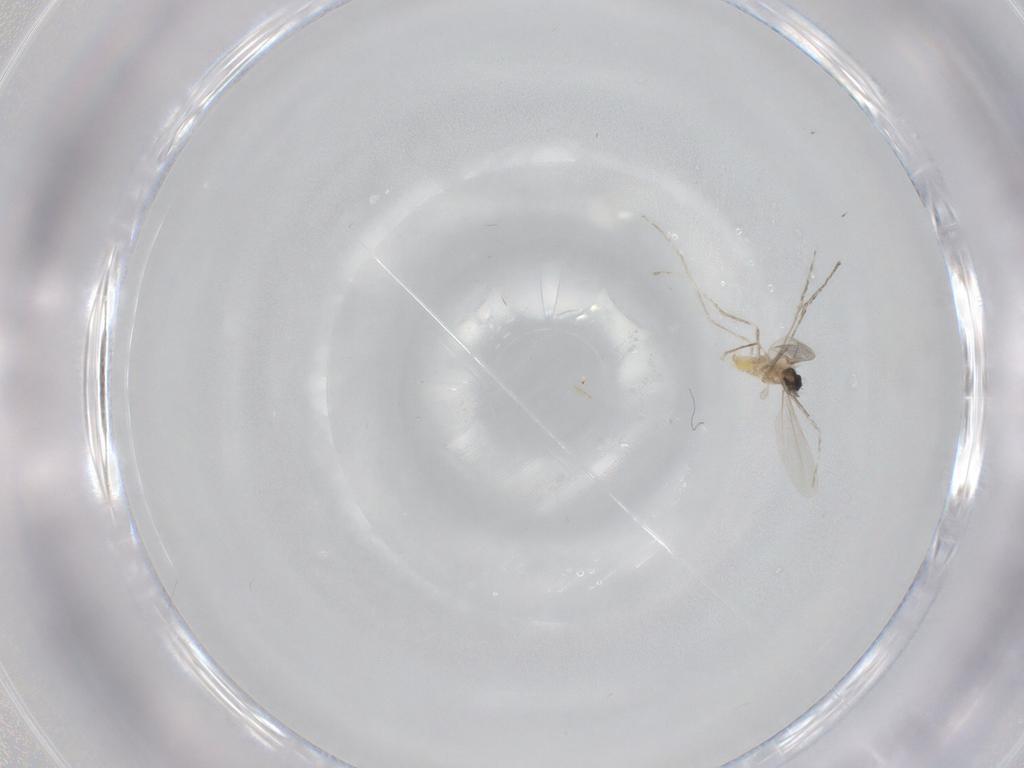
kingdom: Animalia
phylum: Arthropoda
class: Insecta
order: Diptera
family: Cecidomyiidae
